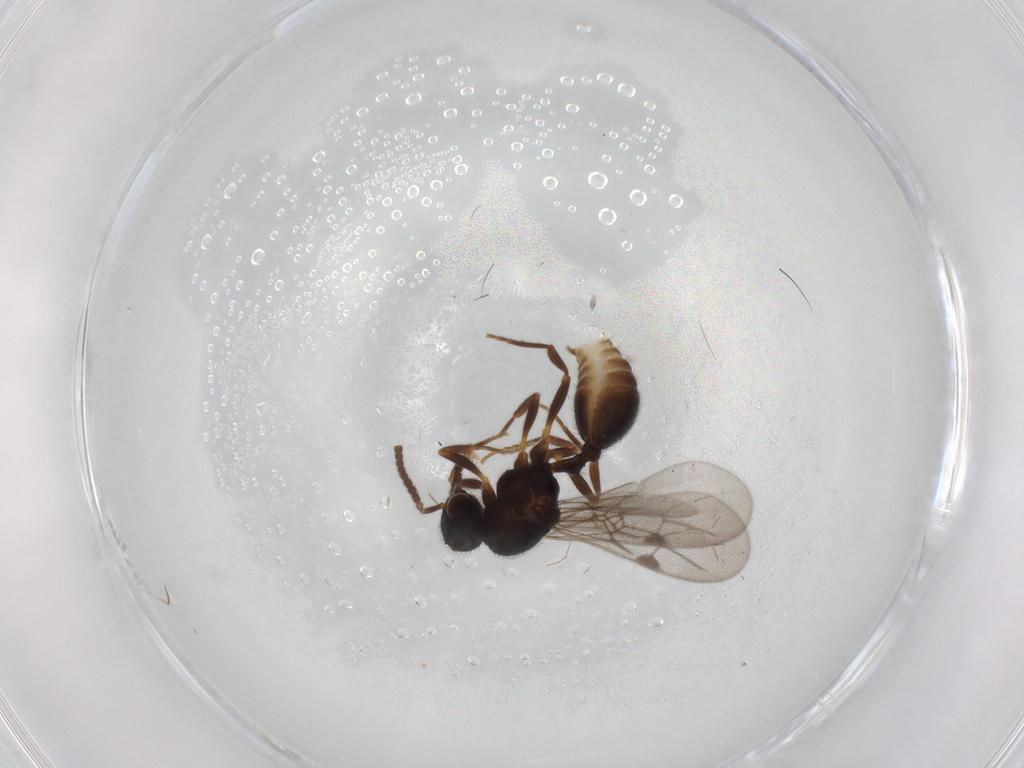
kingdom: Animalia
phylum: Arthropoda
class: Insecta
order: Hymenoptera
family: Formicidae
